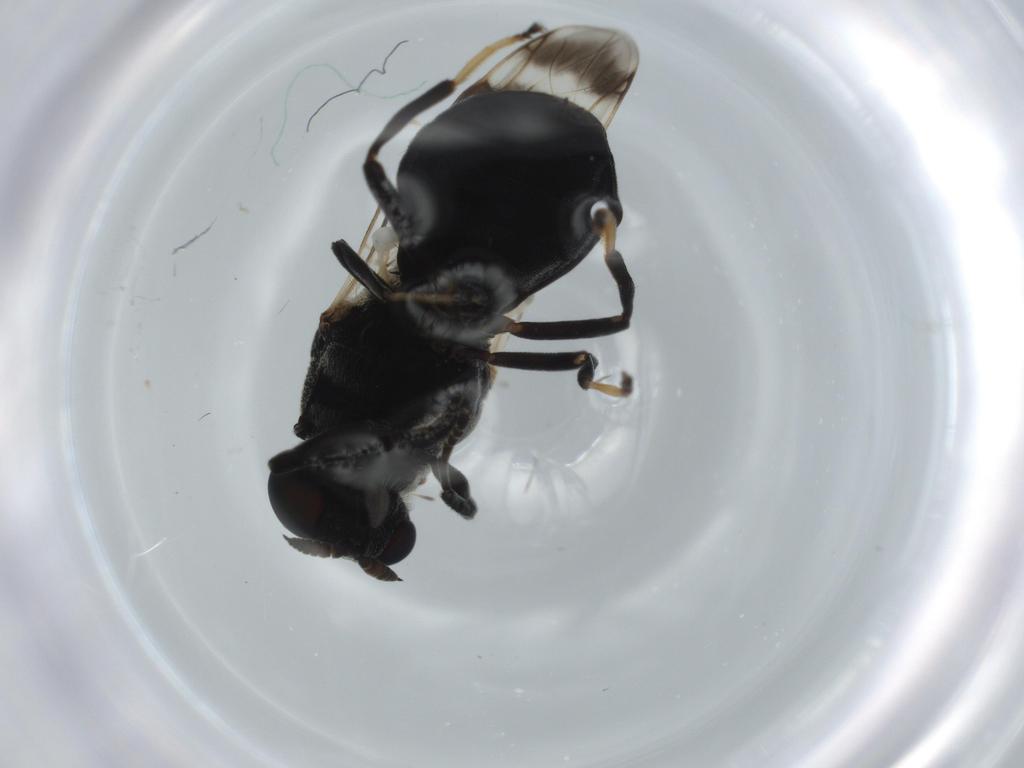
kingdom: Animalia
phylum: Arthropoda
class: Insecta
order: Diptera
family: Stratiomyidae
